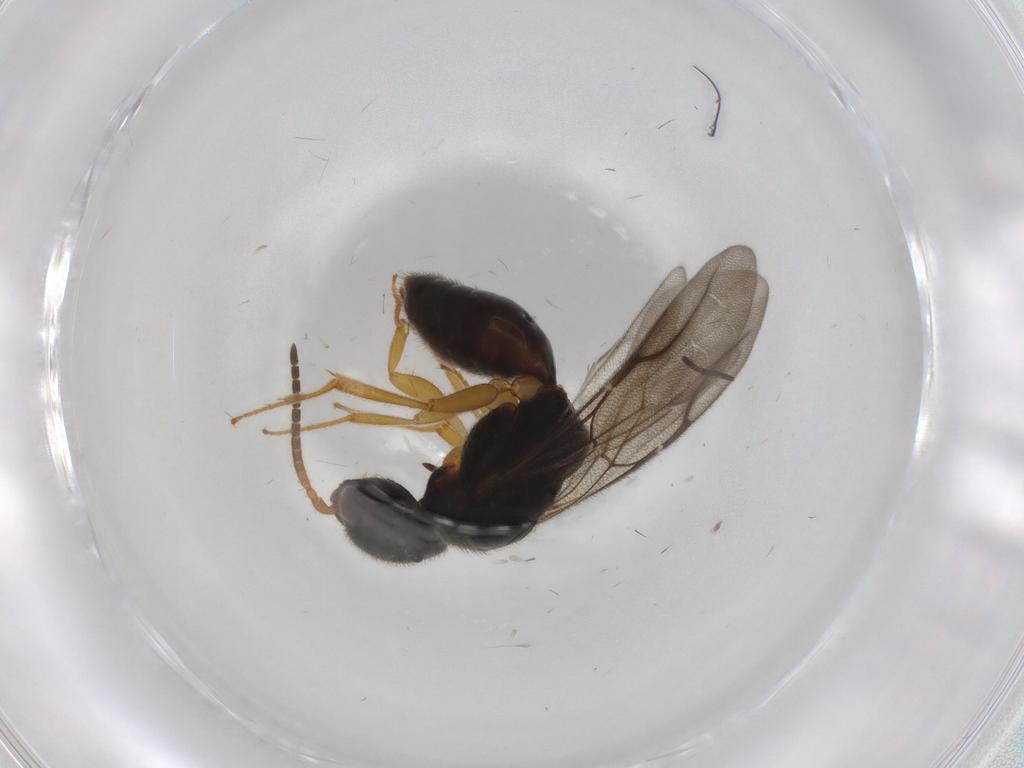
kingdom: Animalia
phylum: Arthropoda
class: Insecta
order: Hymenoptera
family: Bethylidae
